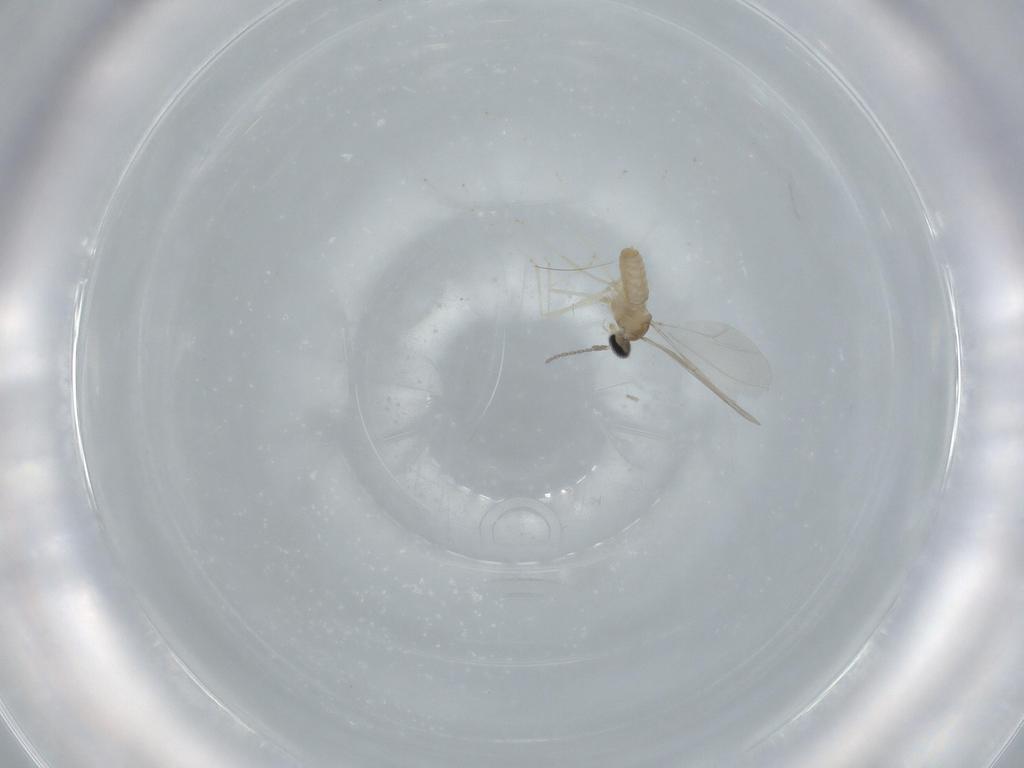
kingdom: Animalia
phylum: Arthropoda
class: Insecta
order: Diptera
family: Cecidomyiidae
